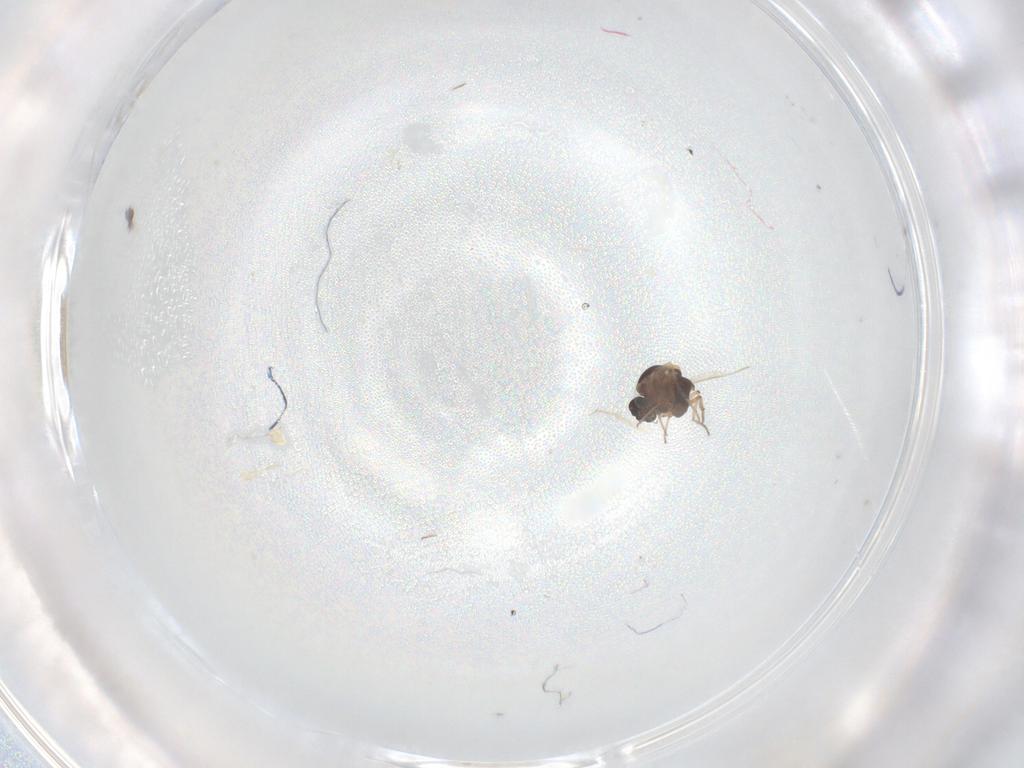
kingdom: Animalia
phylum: Arthropoda
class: Insecta
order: Diptera
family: Ceratopogonidae
